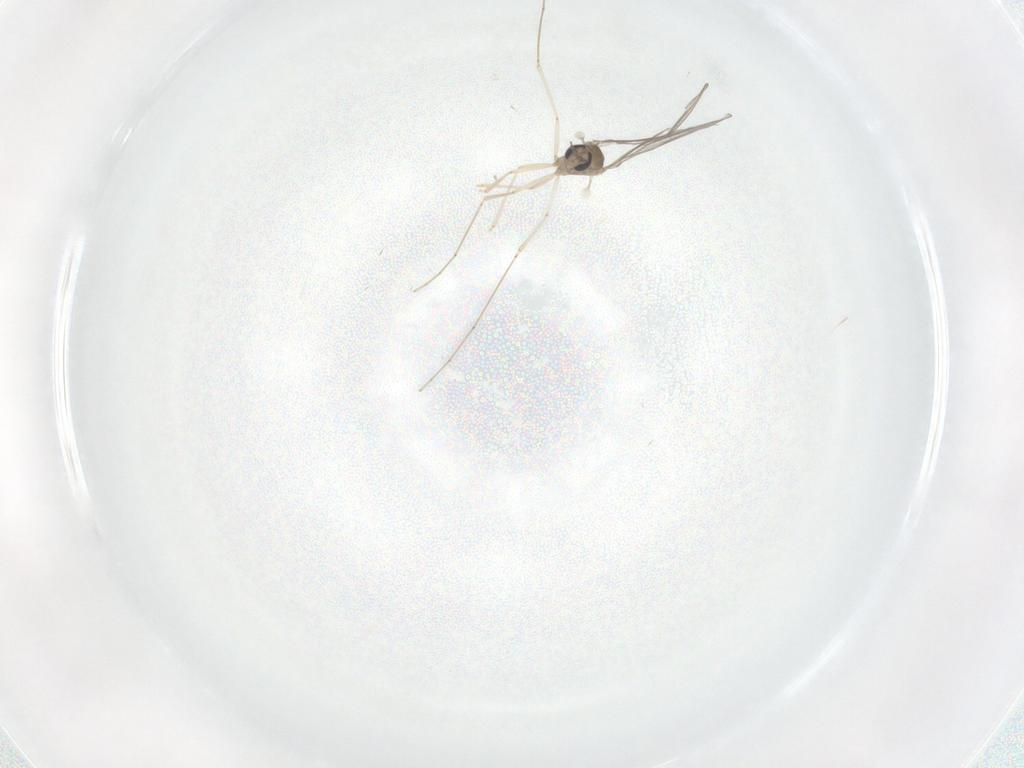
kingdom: Animalia
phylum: Arthropoda
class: Insecta
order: Diptera
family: Cecidomyiidae
